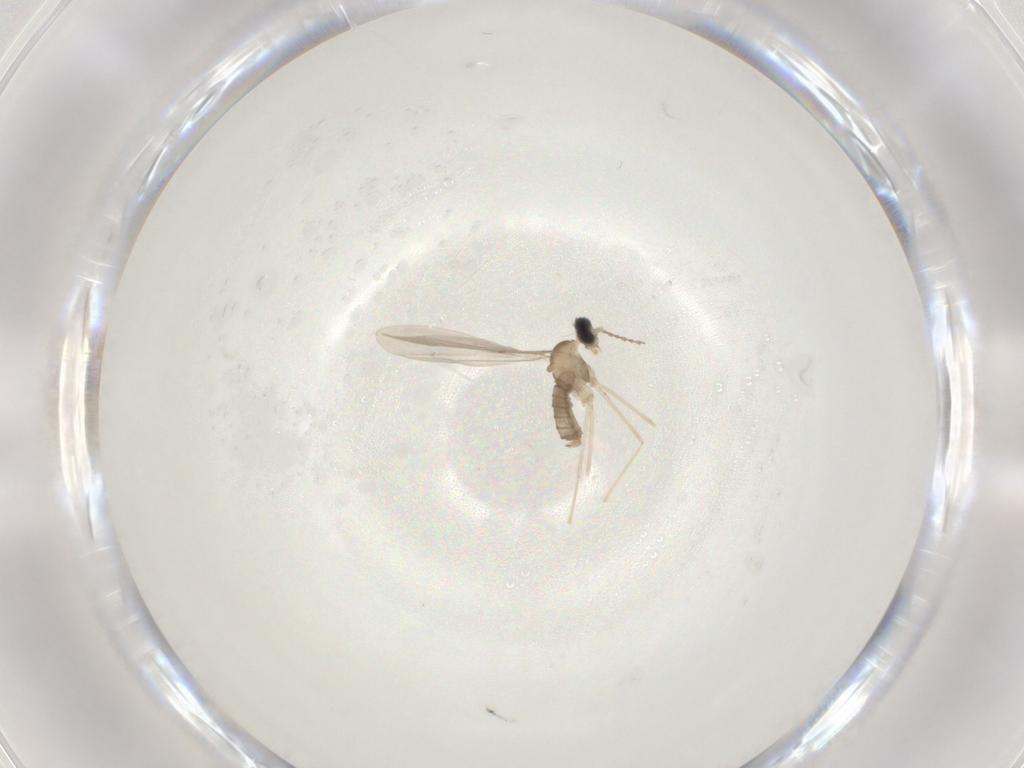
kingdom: Animalia
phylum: Arthropoda
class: Insecta
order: Diptera
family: Cecidomyiidae
